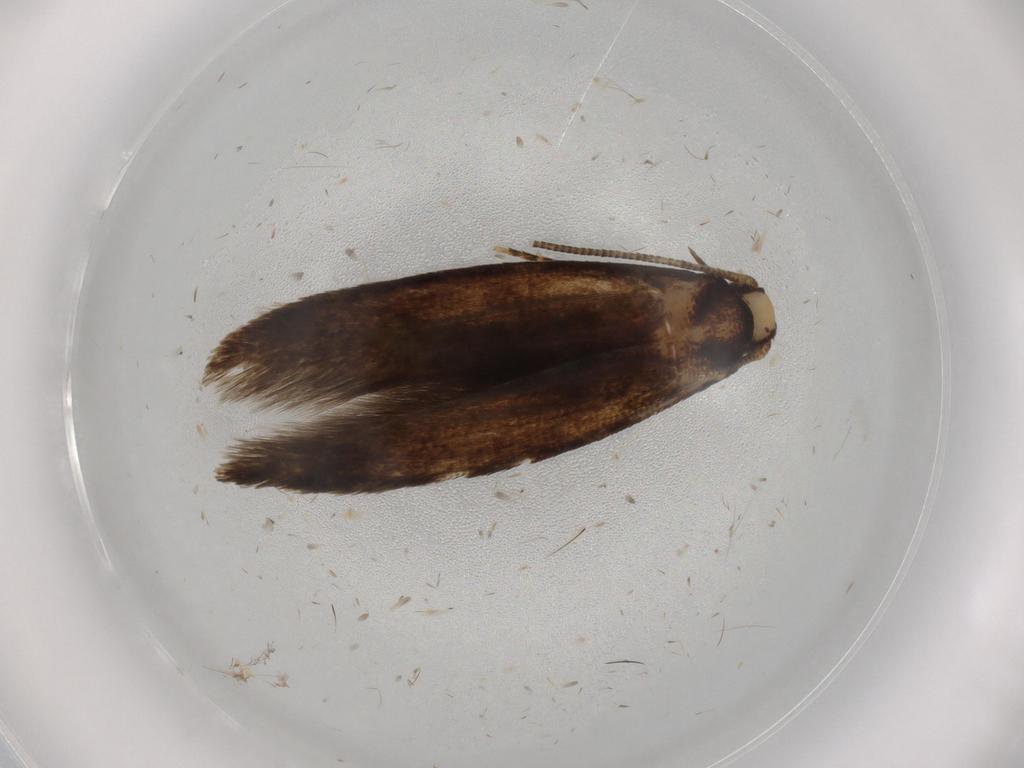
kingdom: Animalia
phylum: Arthropoda
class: Insecta
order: Lepidoptera
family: Tineidae
